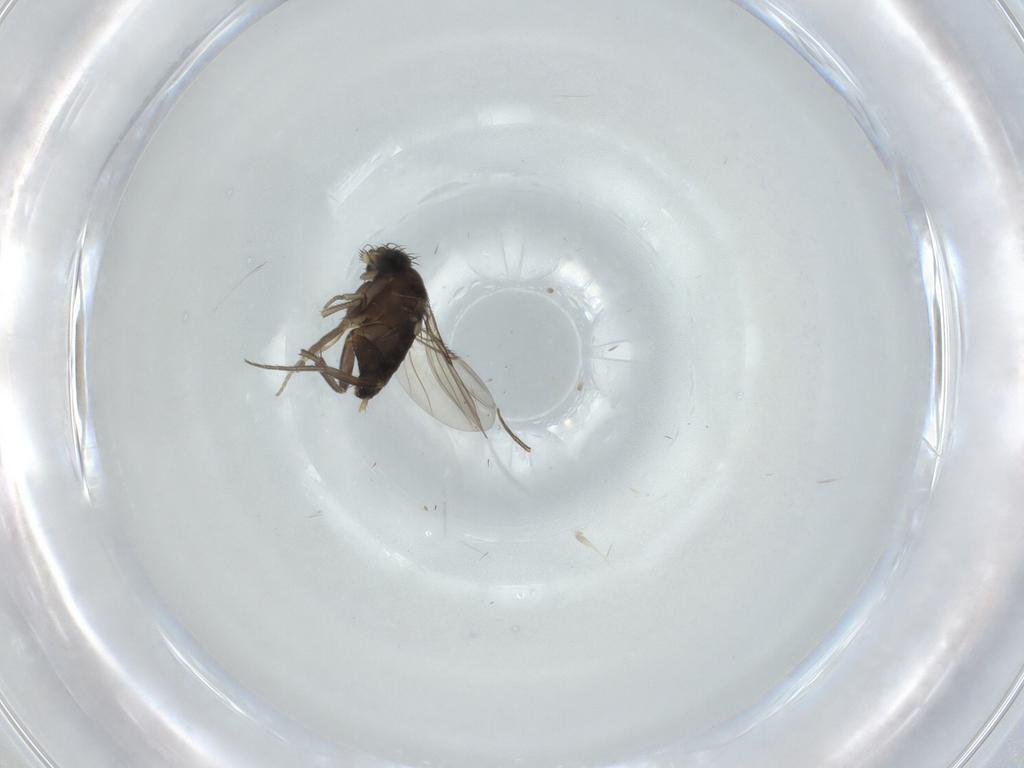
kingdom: Animalia
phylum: Arthropoda
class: Insecta
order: Diptera
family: Phoridae
